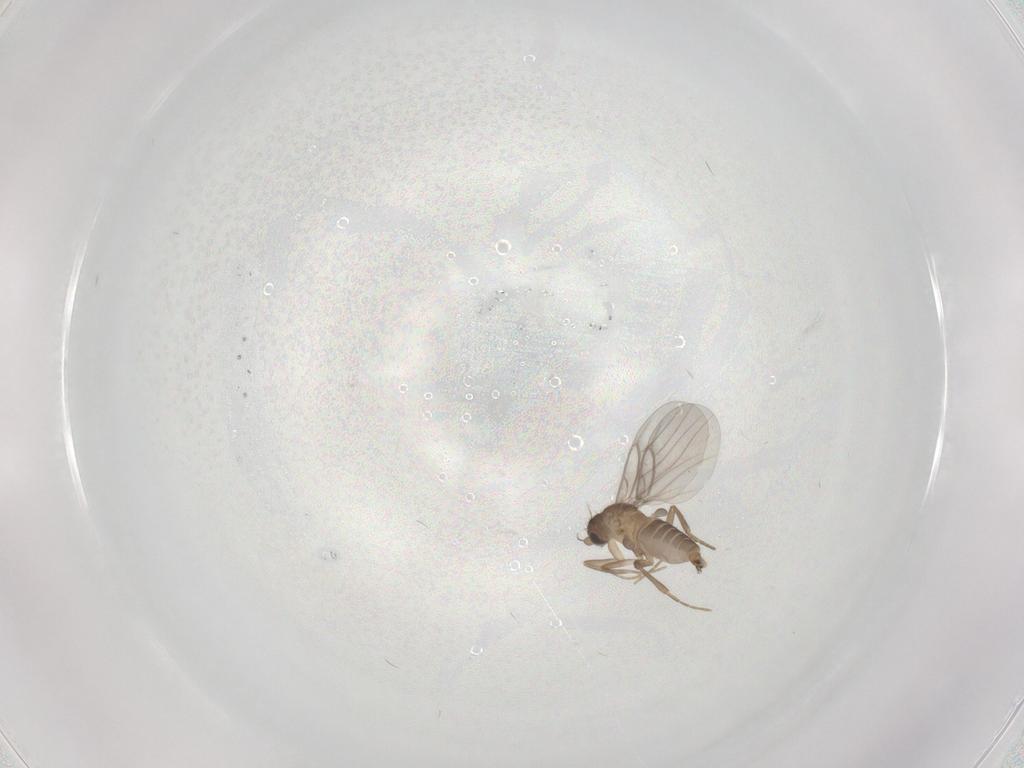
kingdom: Animalia
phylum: Arthropoda
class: Insecta
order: Diptera
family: Cecidomyiidae
